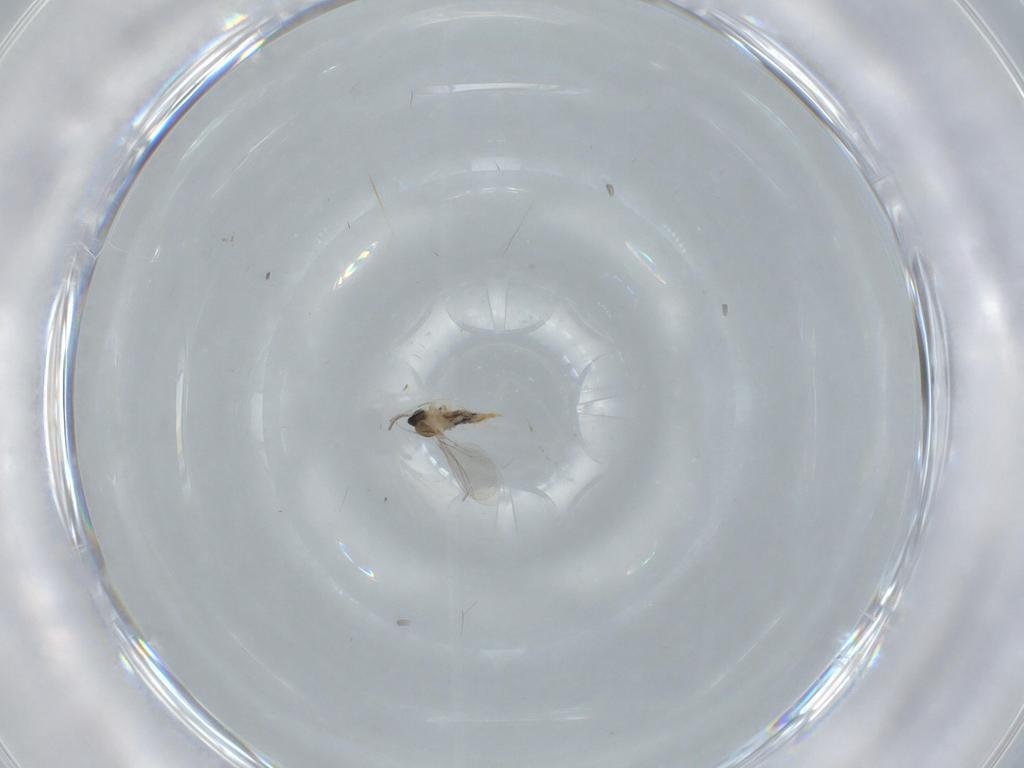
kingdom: Animalia
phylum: Arthropoda
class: Insecta
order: Diptera
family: Cecidomyiidae
